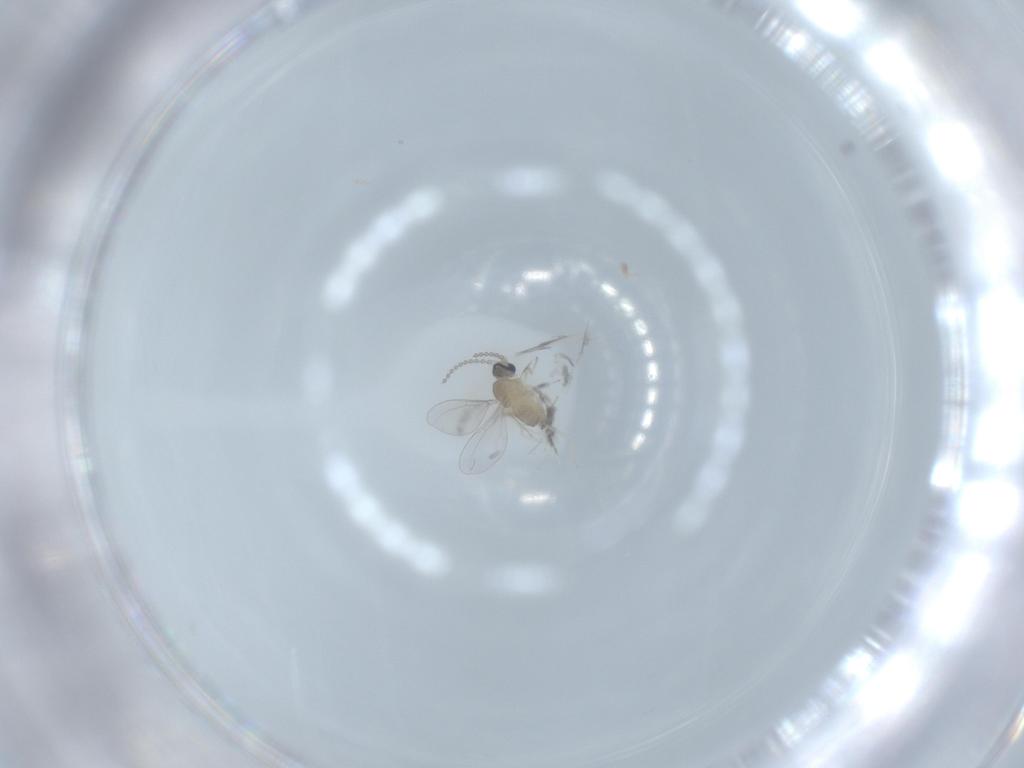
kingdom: Animalia
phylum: Arthropoda
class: Insecta
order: Diptera
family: Cecidomyiidae
